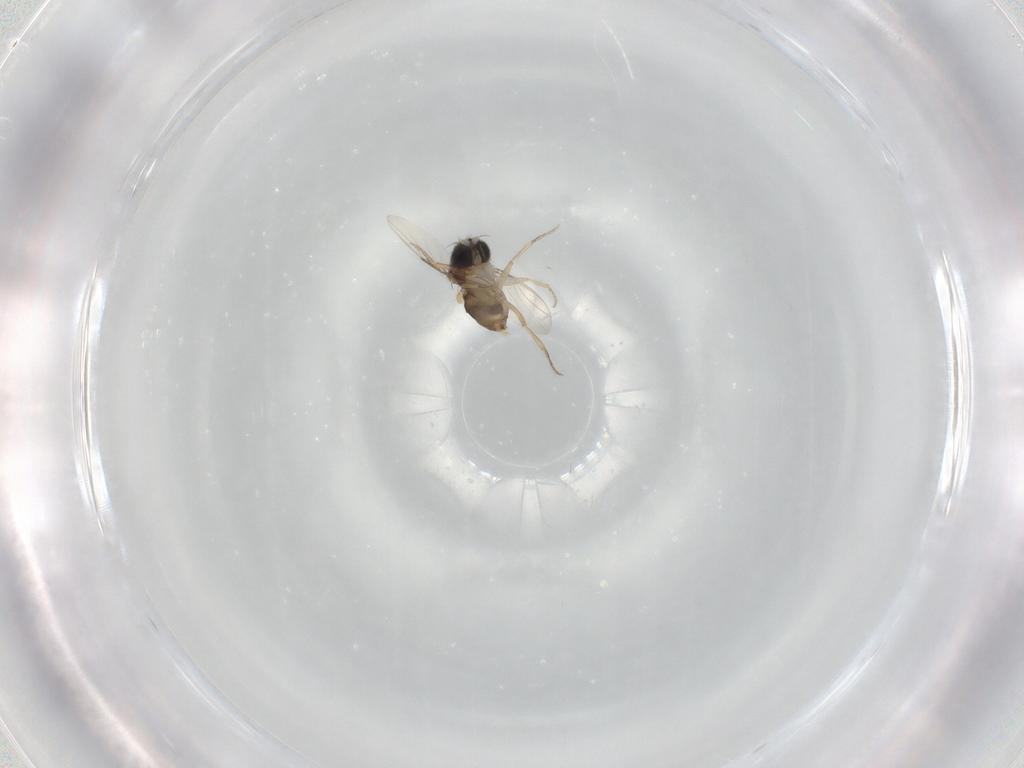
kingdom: Animalia
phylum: Arthropoda
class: Insecta
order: Diptera
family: Phoridae
